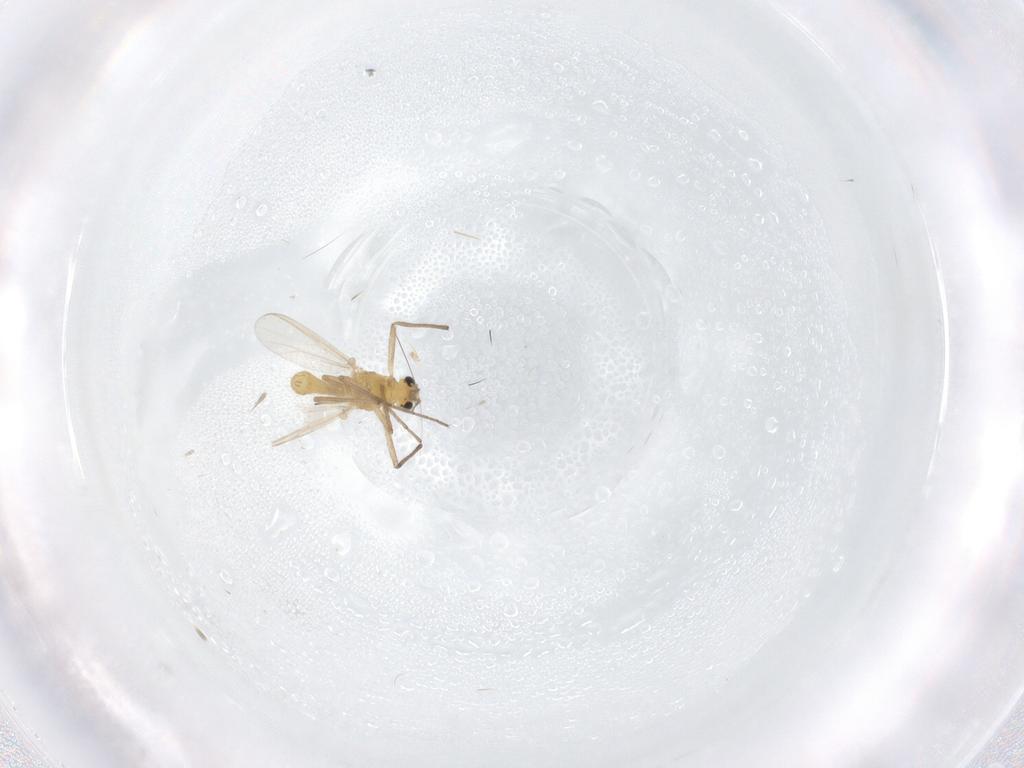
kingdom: Animalia
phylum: Arthropoda
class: Insecta
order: Diptera
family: Chironomidae
